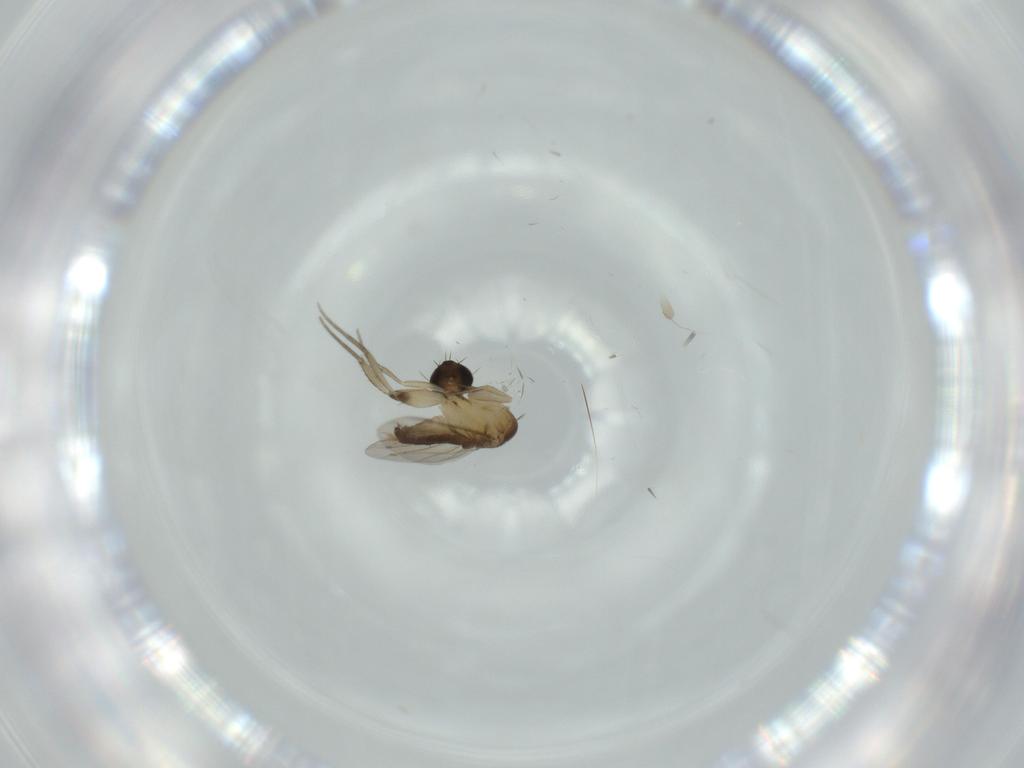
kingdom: Animalia
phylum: Arthropoda
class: Insecta
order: Diptera
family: Phoridae
